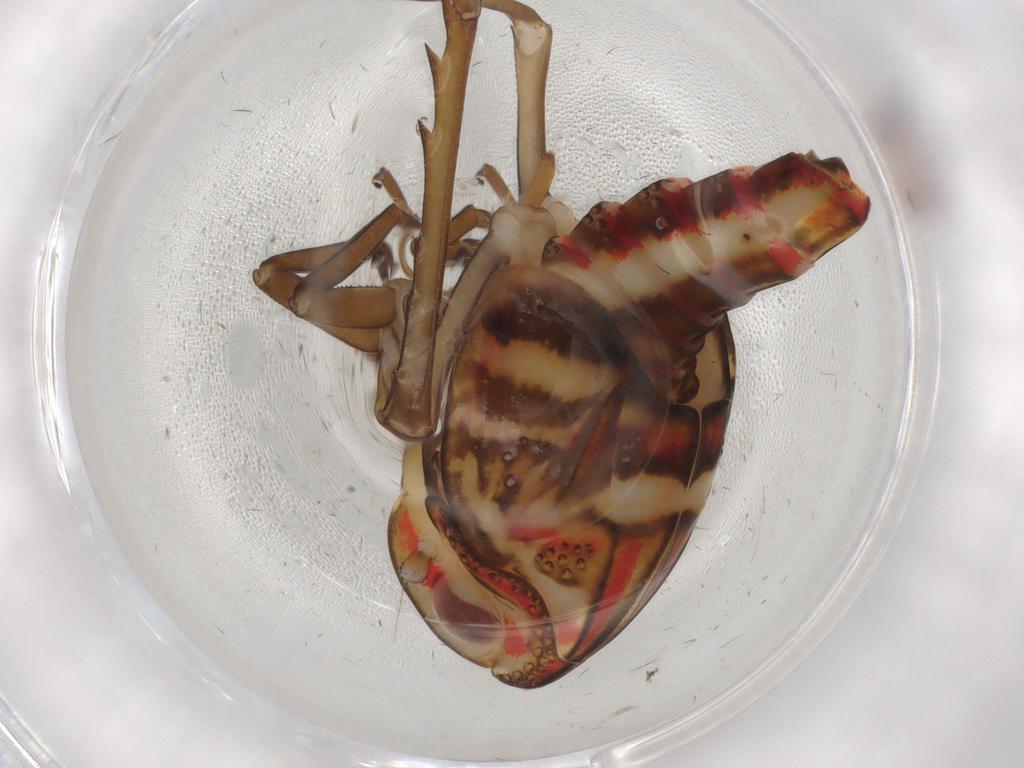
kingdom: Animalia
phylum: Arthropoda
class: Insecta
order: Hemiptera
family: Nogodinidae
